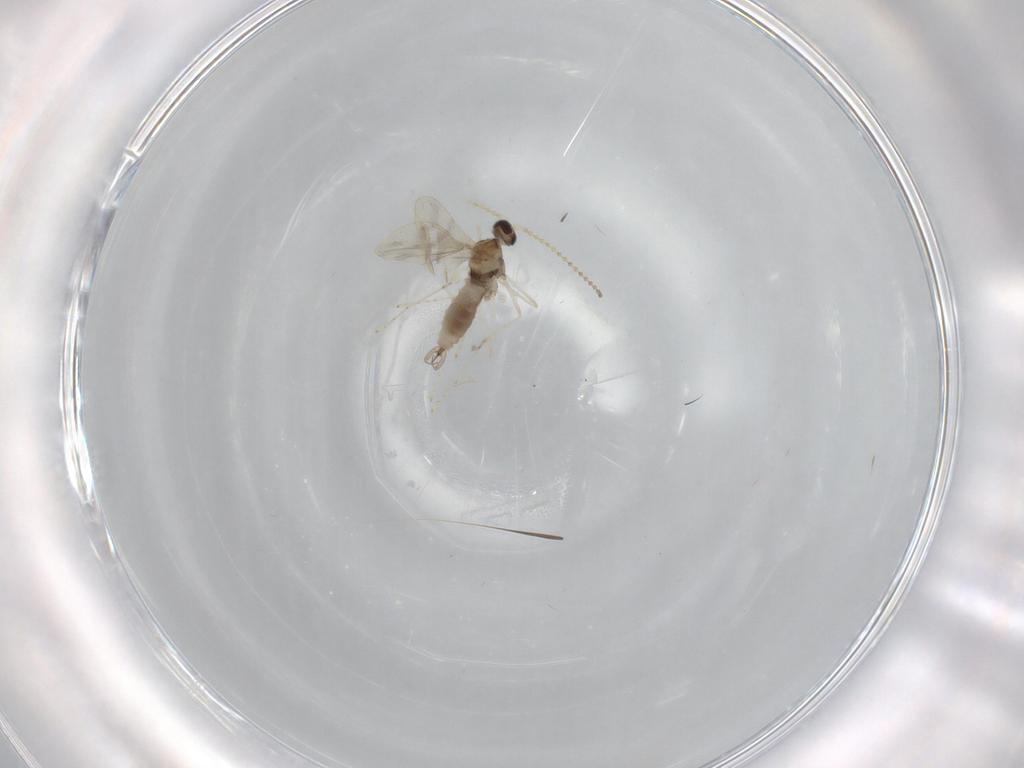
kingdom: Animalia
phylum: Arthropoda
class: Insecta
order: Diptera
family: Cecidomyiidae
